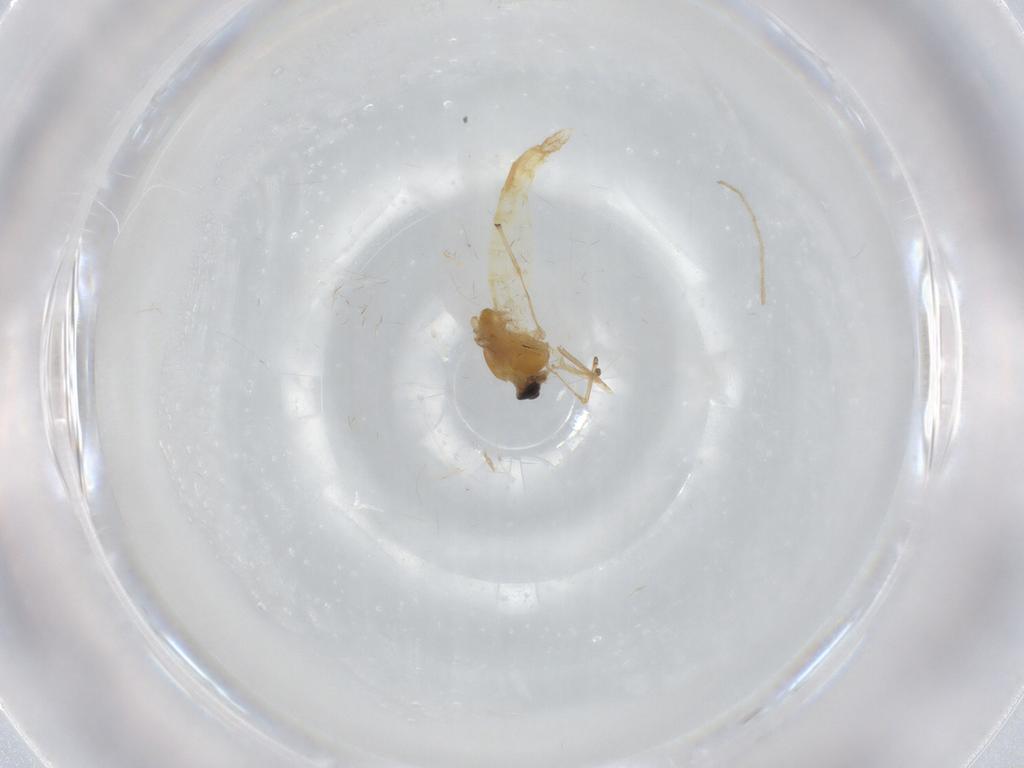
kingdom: Animalia
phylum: Arthropoda
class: Insecta
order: Diptera
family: Chironomidae
